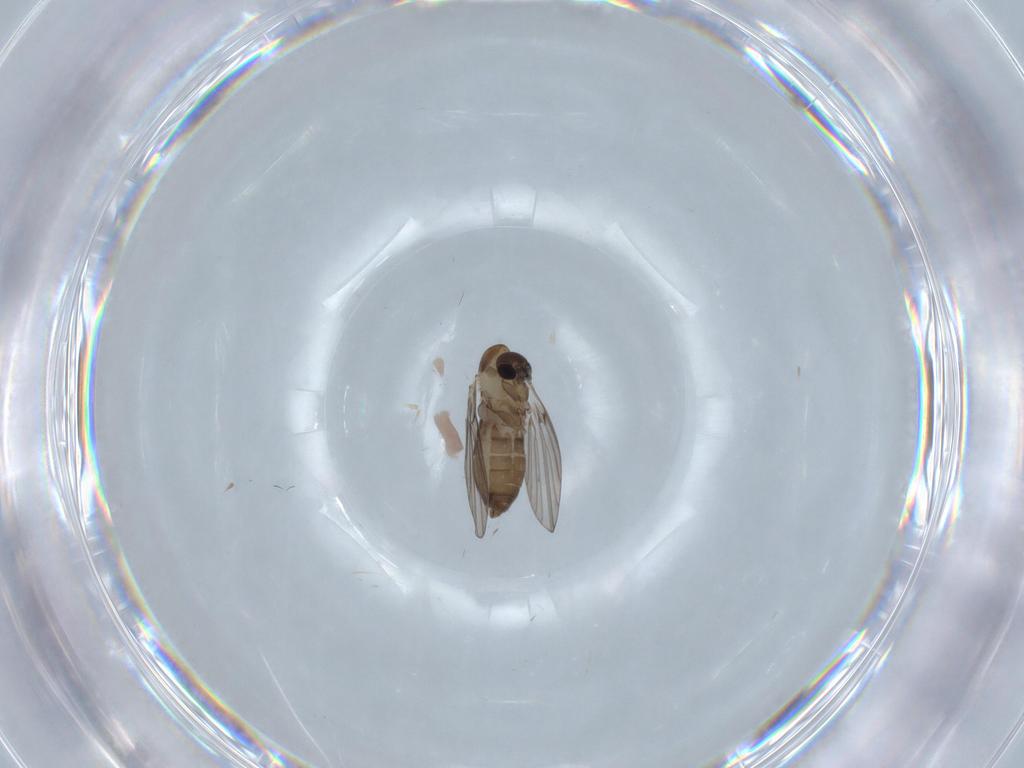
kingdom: Animalia
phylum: Arthropoda
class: Insecta
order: Diptera
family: Psychodidae
